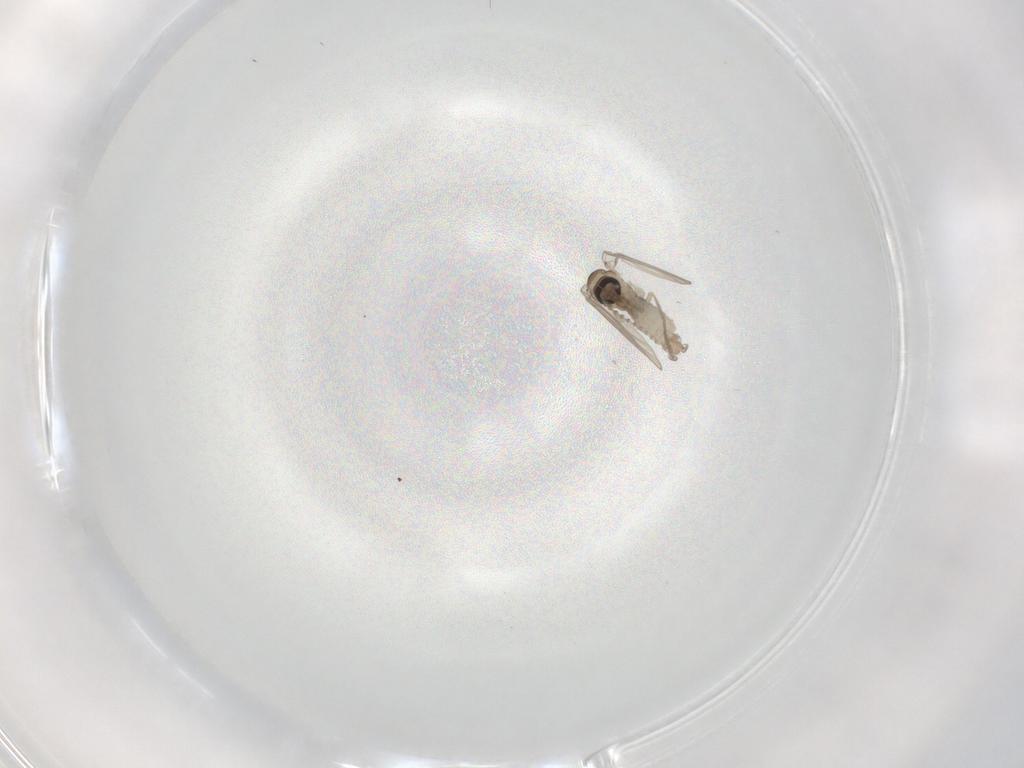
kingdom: Animalia
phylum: Arthropoda
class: Insecta
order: Diptera
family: Psychodidae
